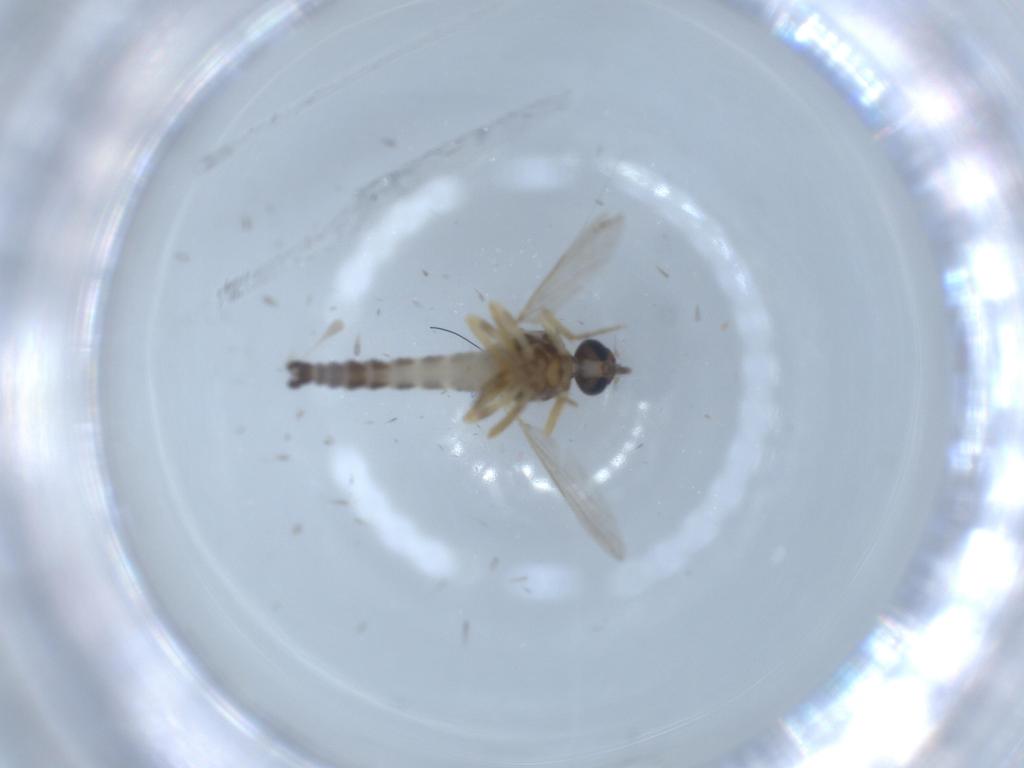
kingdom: Animalia
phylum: Arthropoda
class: Insecta
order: Diptera
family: Ceratopogonidae
